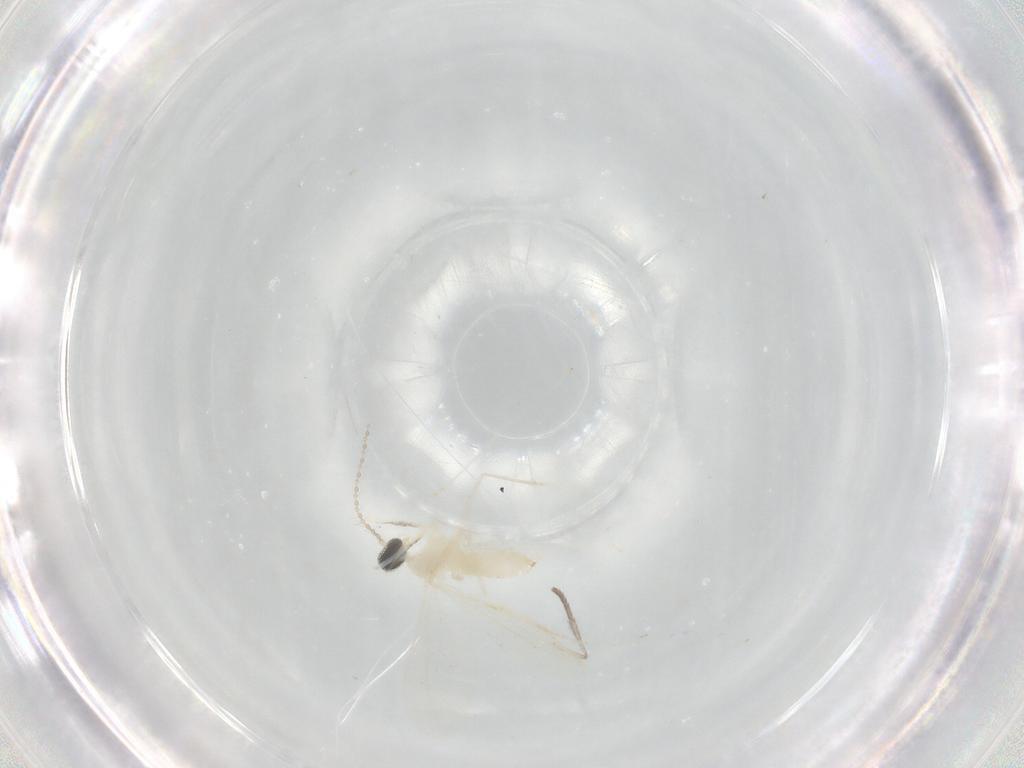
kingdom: Animalia
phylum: Arthropoda
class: Insecta
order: Diptera
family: Cecidomyiidae
